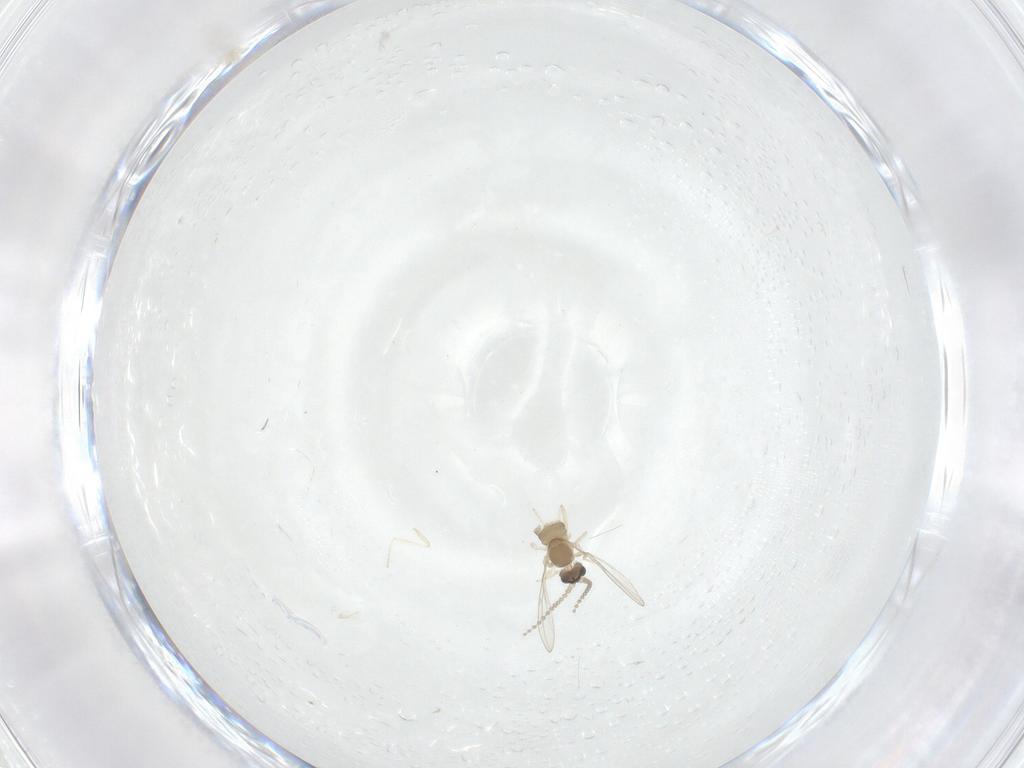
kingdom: Animalia
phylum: Arthropoda
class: Insecta
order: Diptera
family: Cecidomyiidae
